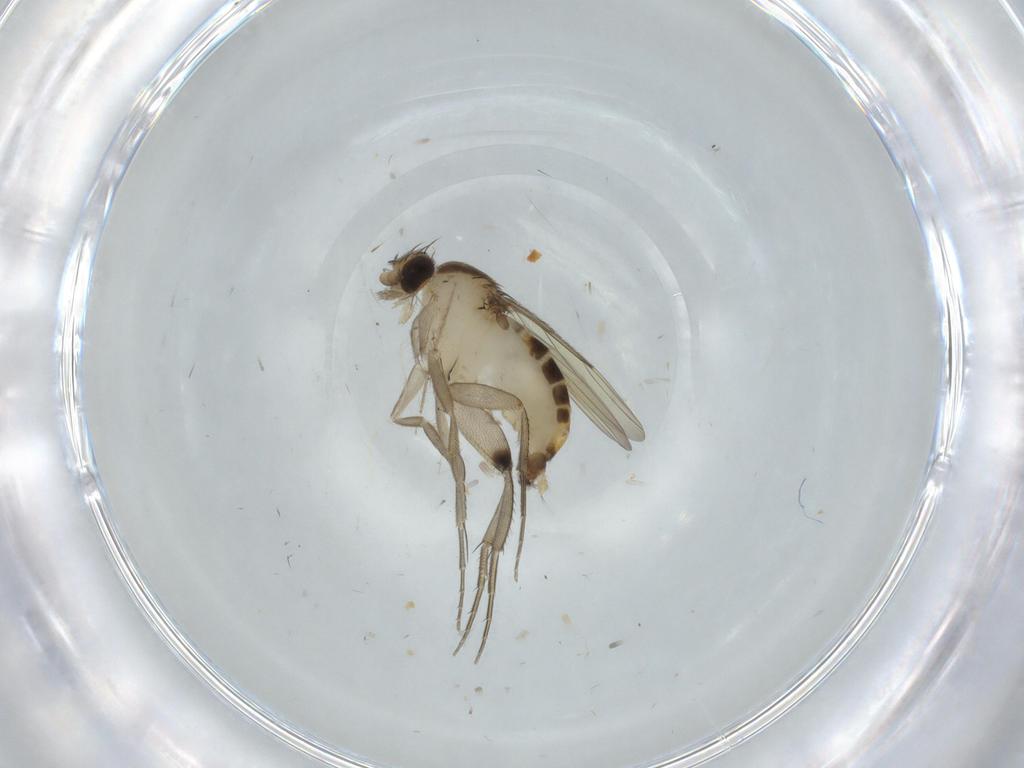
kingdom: Animalia
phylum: Arthropoda
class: Insecta
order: Diptera
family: Phoridae
